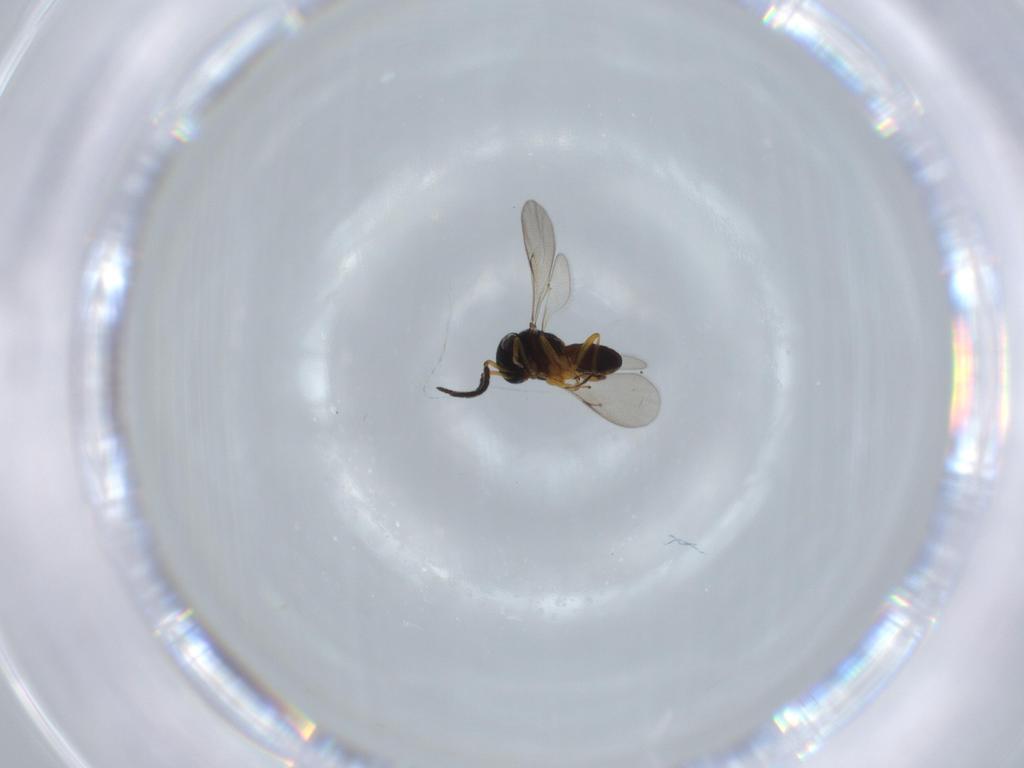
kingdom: Animalia
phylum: Arthropoda
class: Insecta
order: Hymenoptera
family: Scelionidae
